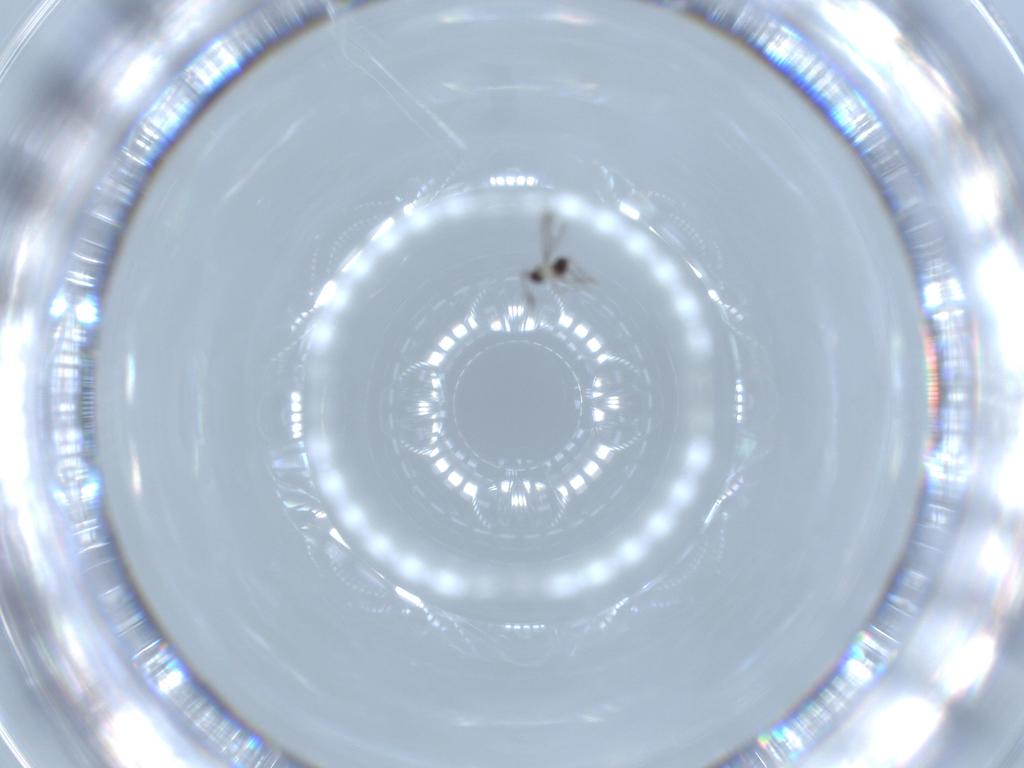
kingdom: Animalia
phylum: Arthropoda
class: Insecta
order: Hymenoptera
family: Mymaridae
